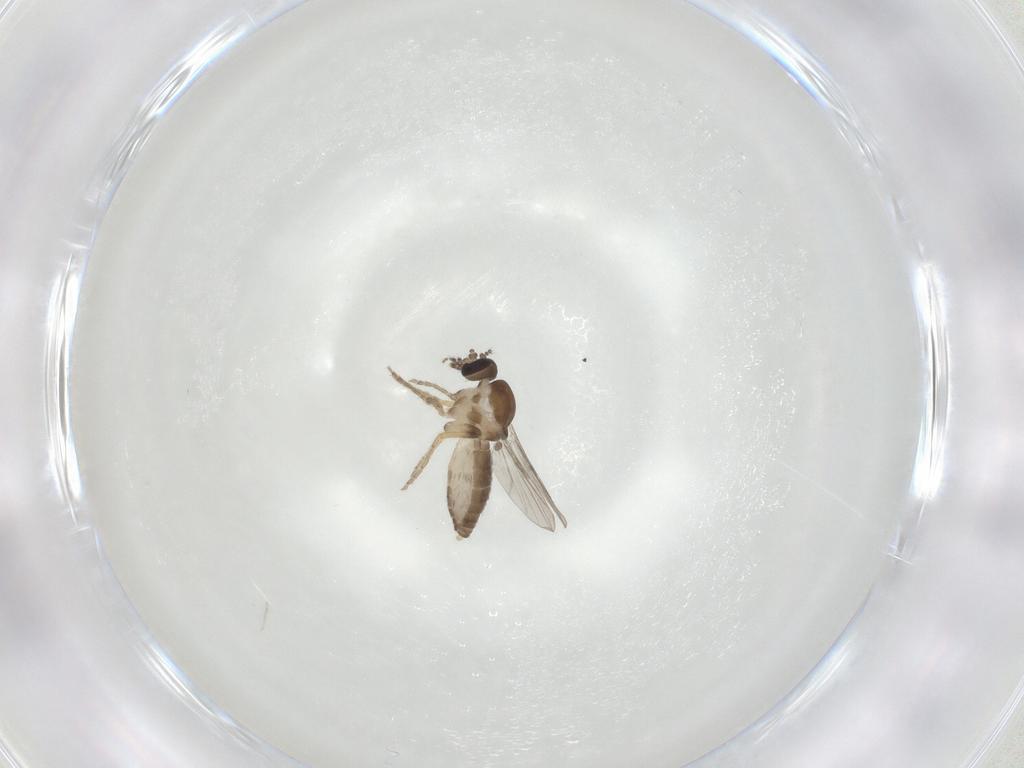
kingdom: Animalia
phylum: Arthropoda
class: Insecta
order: Diptera
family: Ceratopogonidae
